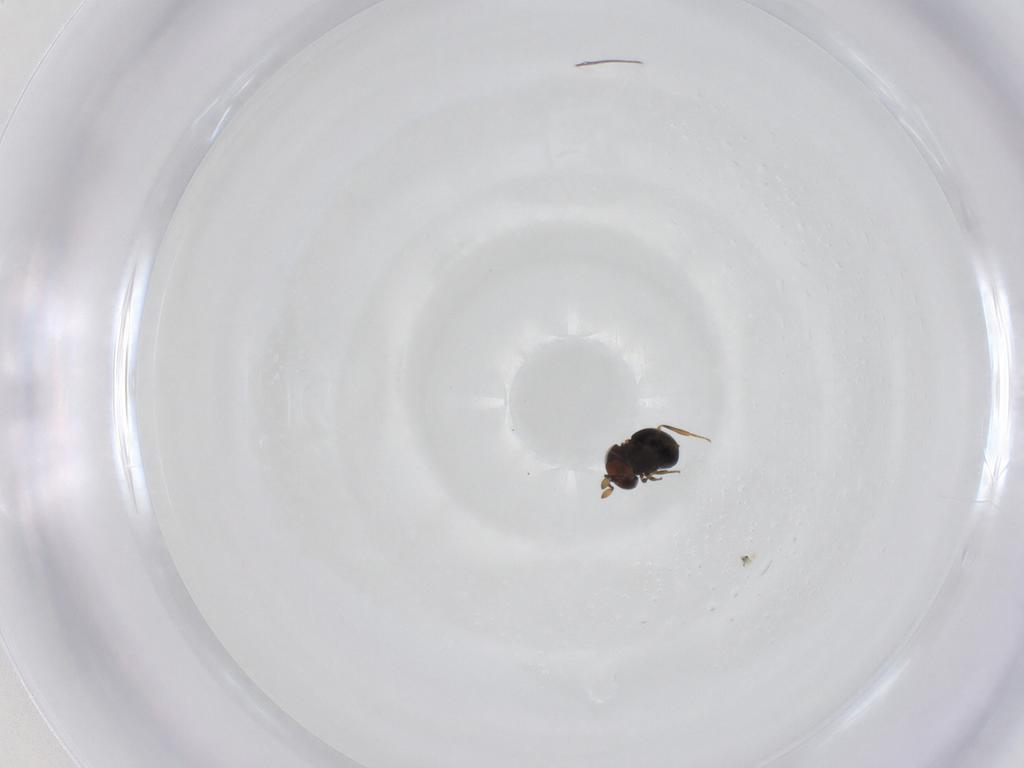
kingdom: Animalia
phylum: Arthropoda
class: Insecta
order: Hymenoptera
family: Scelionidae
